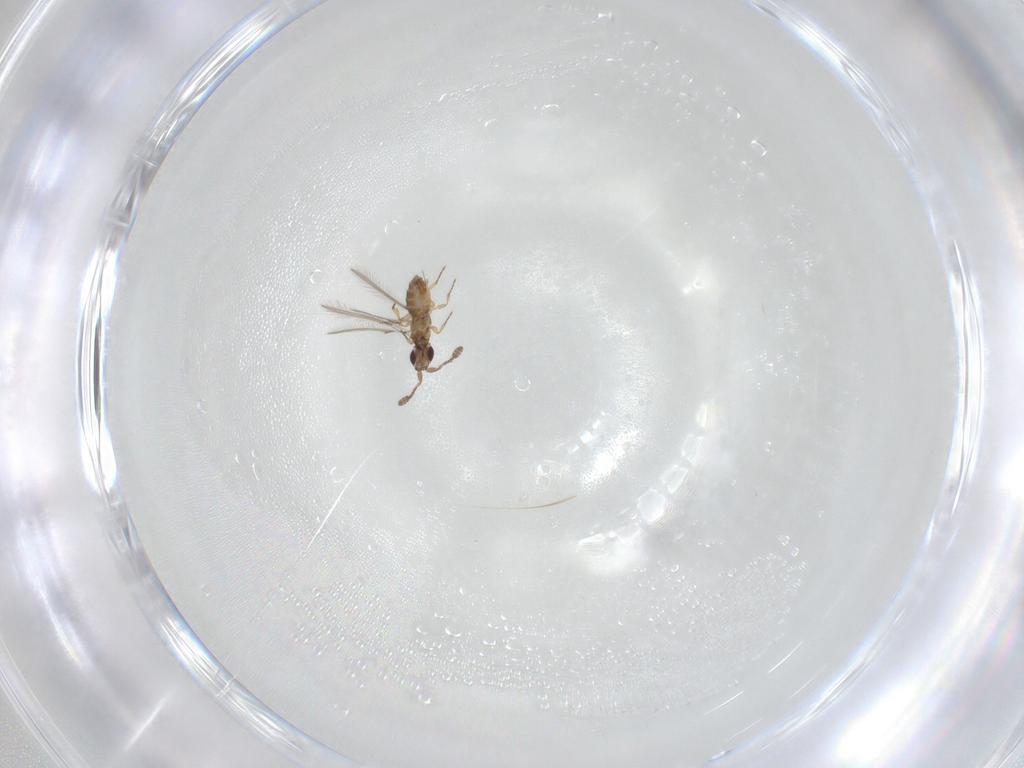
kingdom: Animalia
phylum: Arthropoda
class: Insecta
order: Hymenoptera
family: Mymaridae
